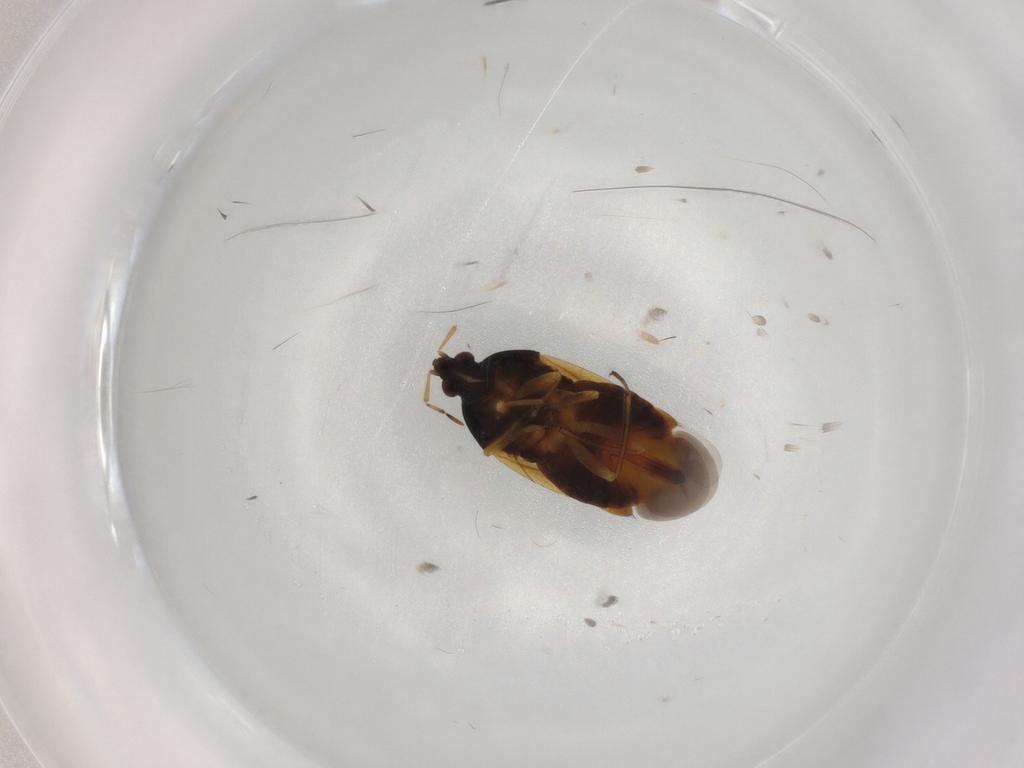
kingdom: Animalia
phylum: Arthropoda
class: Insecta
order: Hemiptera
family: Anthocoridae
